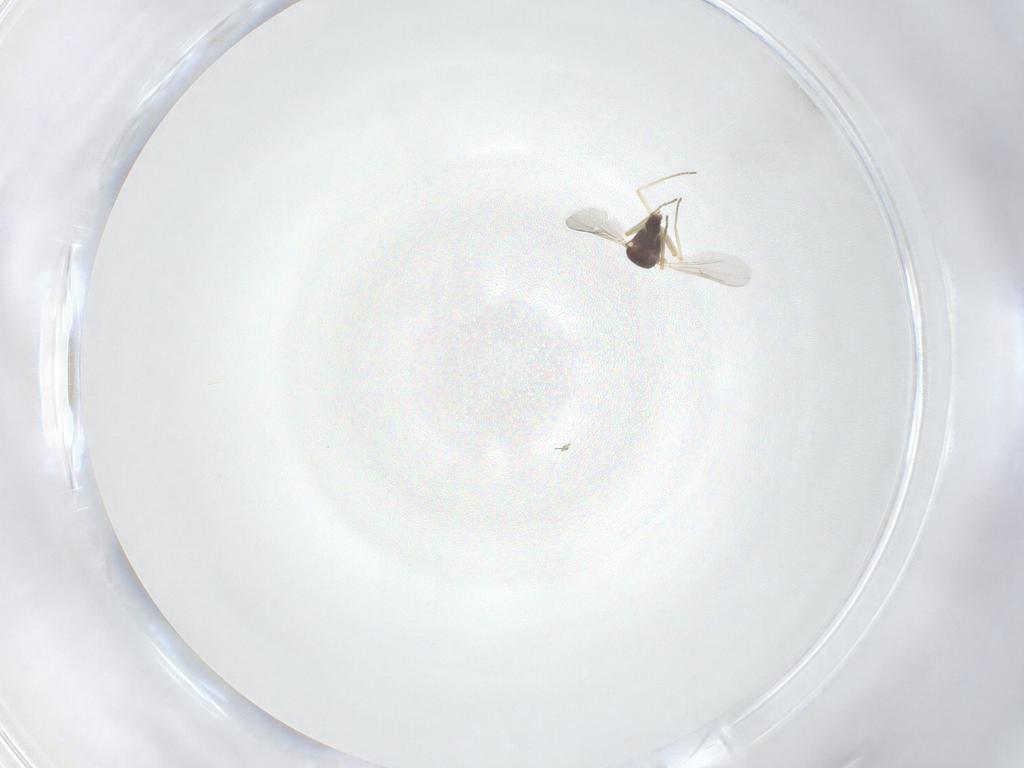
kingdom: Animalia
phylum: Arthropoda
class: Insecta
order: Diptera
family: Ceratopogonidae
